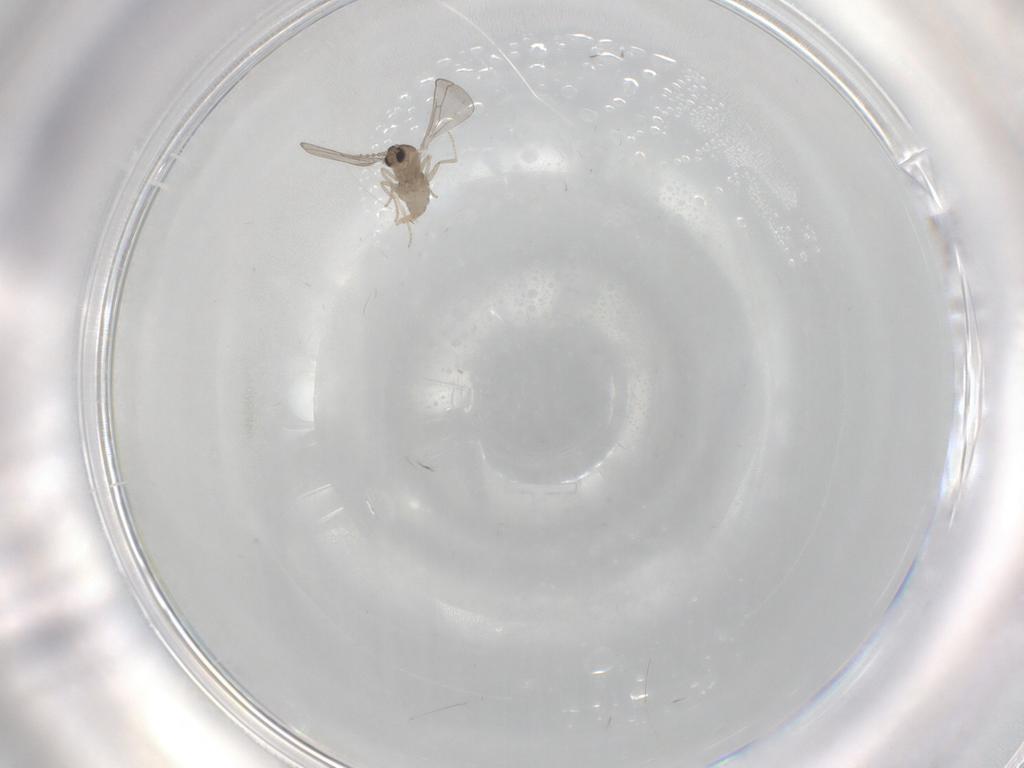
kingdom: Animalia
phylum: Arthropoda
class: Insecta
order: Diptera
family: Cecidomyiidae
